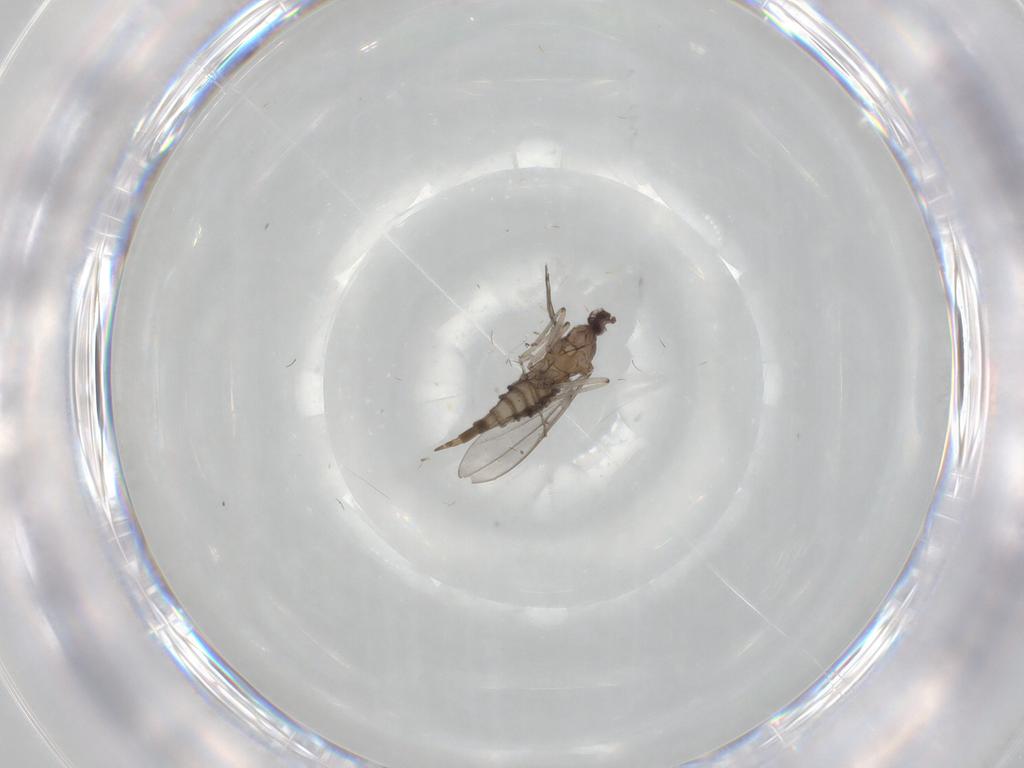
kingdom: Animalia
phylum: Arthropoda
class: Insecta
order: Diptera
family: Cecidomyiidae
